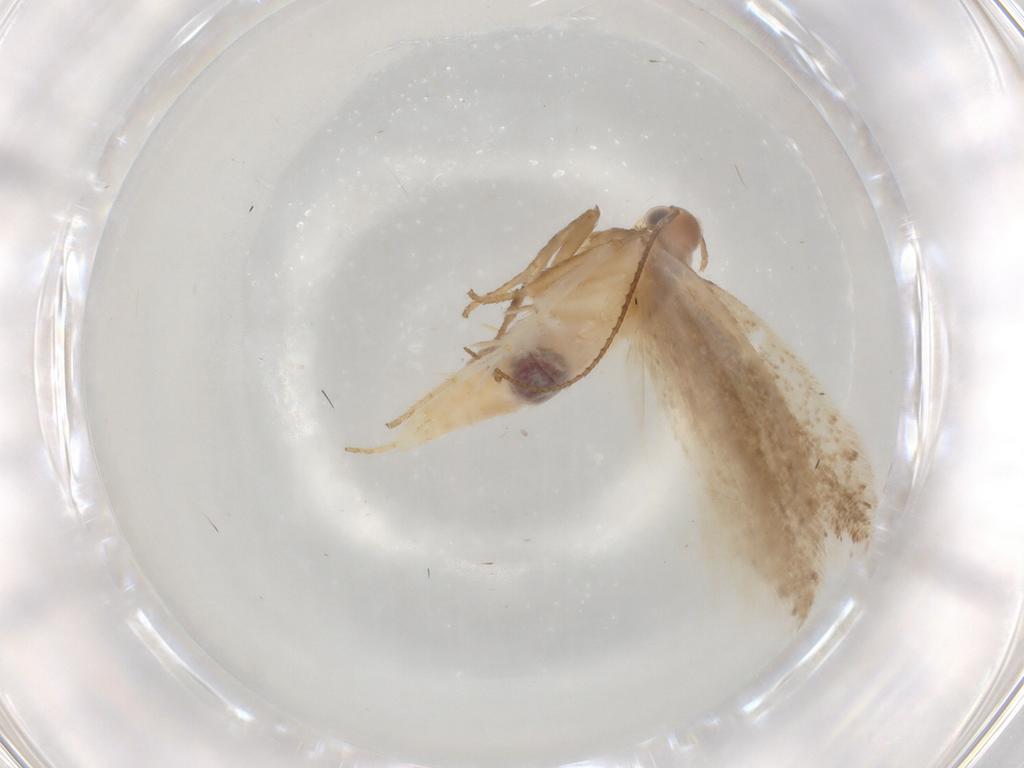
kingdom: Animalia
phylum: Arthropoda
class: Insecta
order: Lepidoptera
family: Gelechiidae
